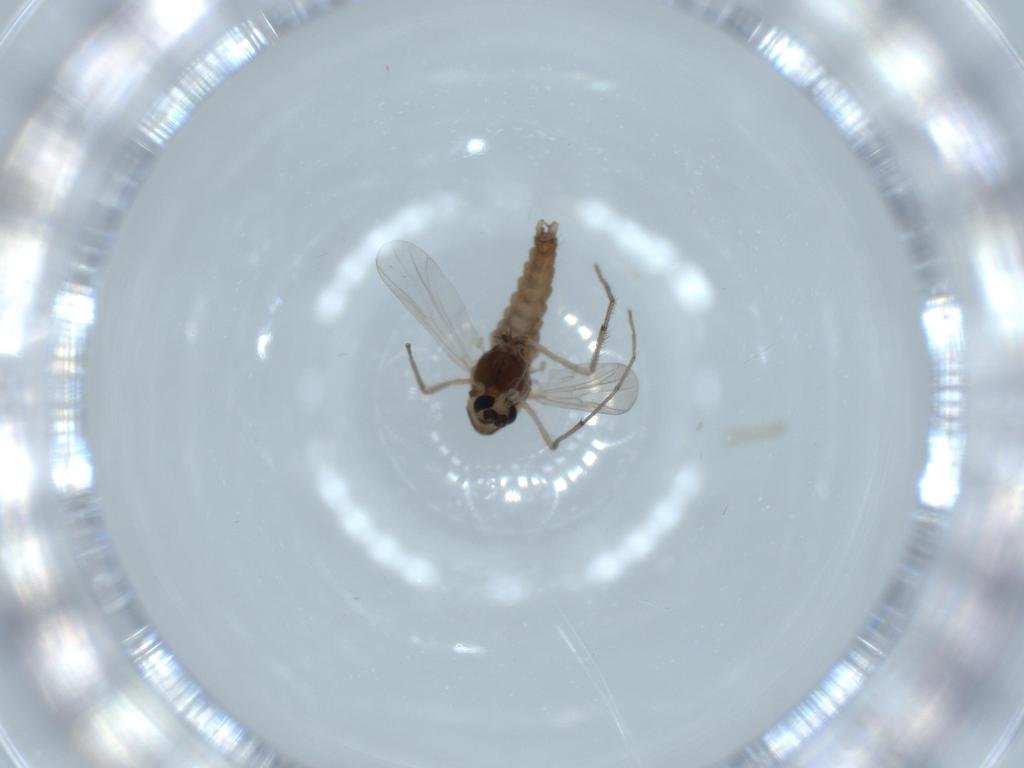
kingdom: Animalia
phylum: Arthropoda
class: Insecta
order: Diptera
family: Chironomidae
